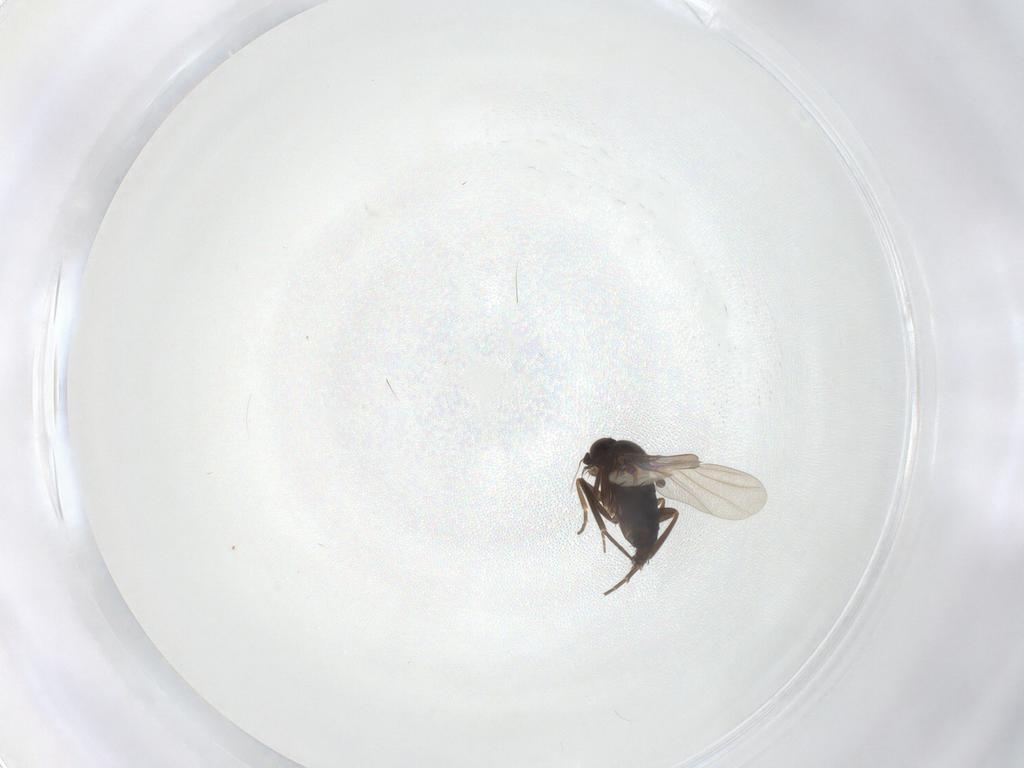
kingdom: Animalia
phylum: Arthropoda
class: Insecta
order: Diptera
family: Phoridae
